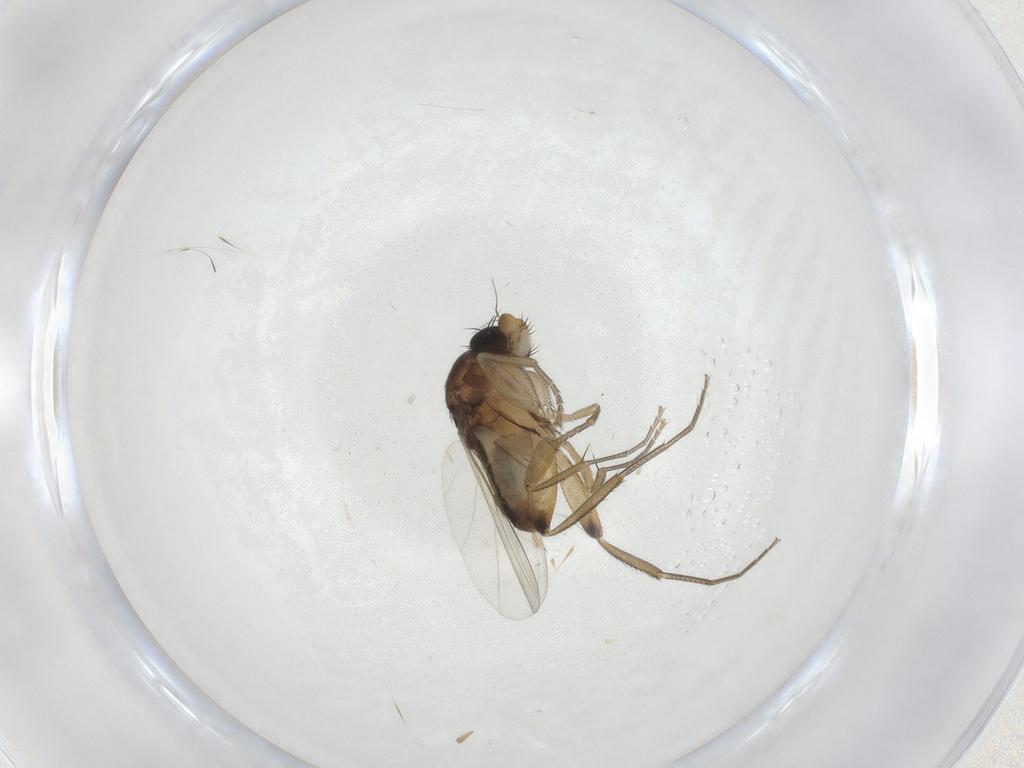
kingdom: Animalia
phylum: Arthropoda
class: Insecta
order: Diptera
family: Phoridae
